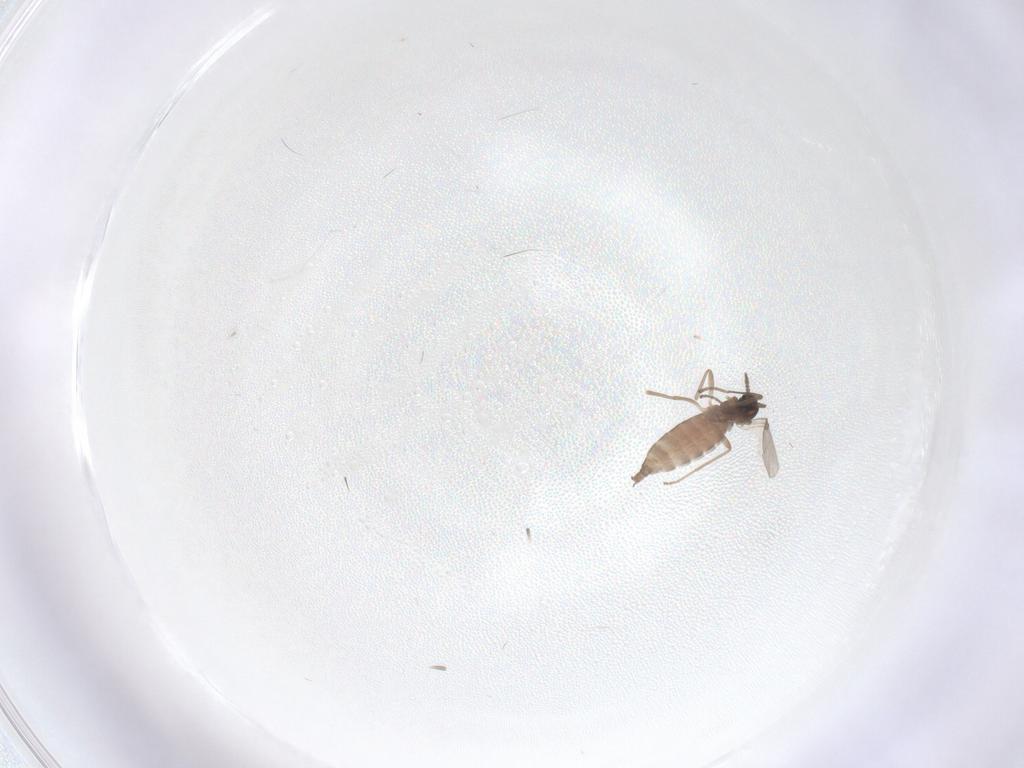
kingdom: Animalia
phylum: Arthropoda
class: Insecta
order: Diptera
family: Cecidomyiidae
